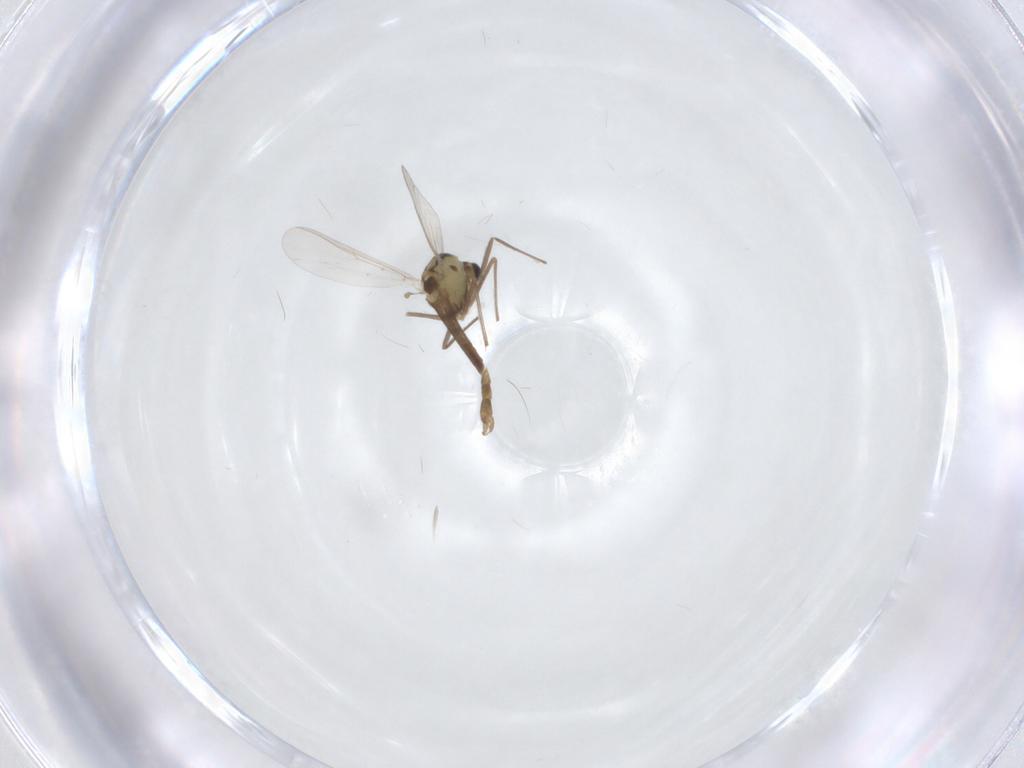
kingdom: Animalia
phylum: Arthropoda
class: Insecta
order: Diptera
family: Chironomidae
